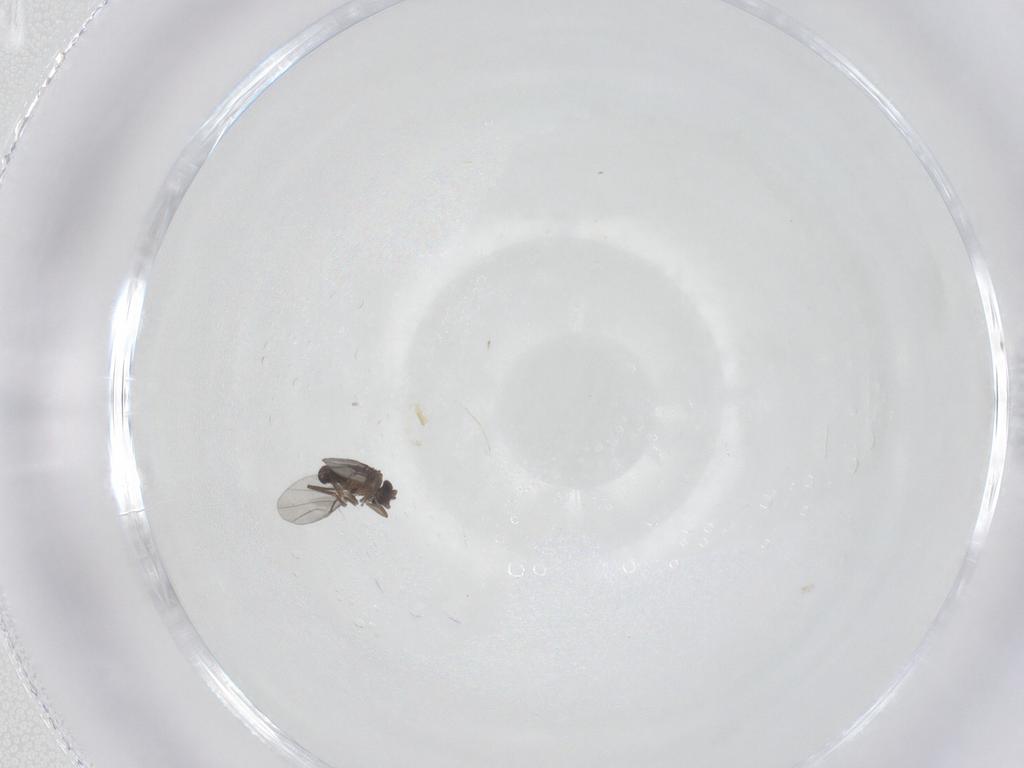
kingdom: Animalia
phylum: Arthropoda
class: Insecta
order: Diptera
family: Phoridae
